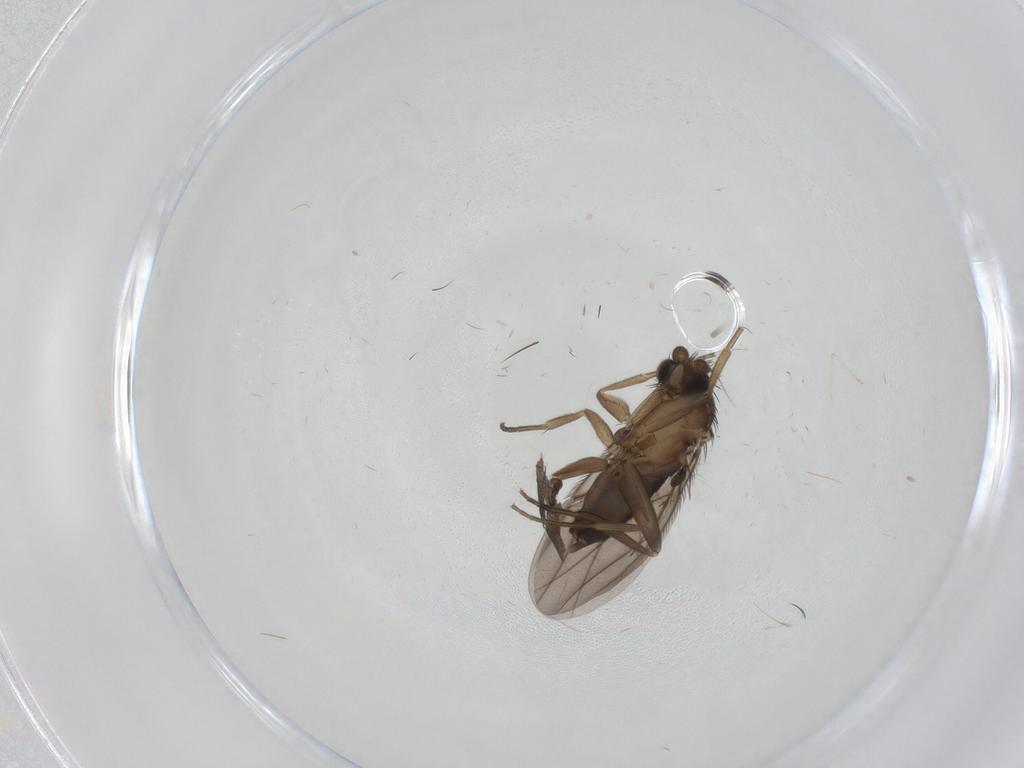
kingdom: Animalia
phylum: Arthropoda
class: Insecta
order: Diptera
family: Chironomidae
